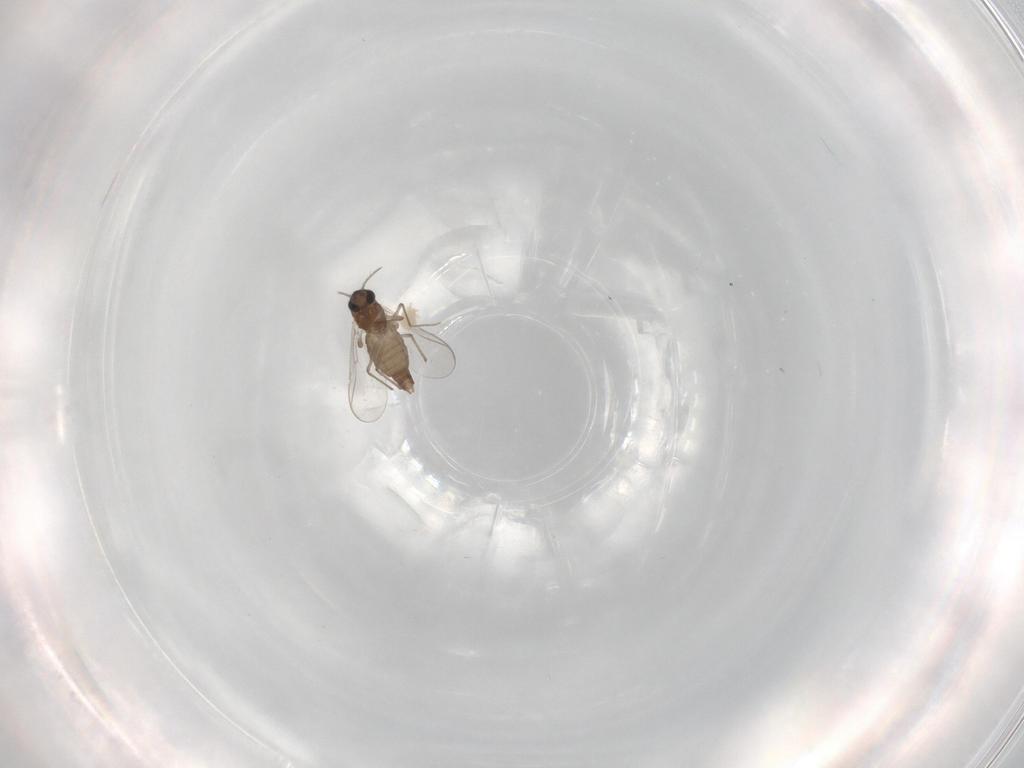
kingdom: Animalia
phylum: Arthropoda
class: Insecta
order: Diptera
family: Chironomidae
